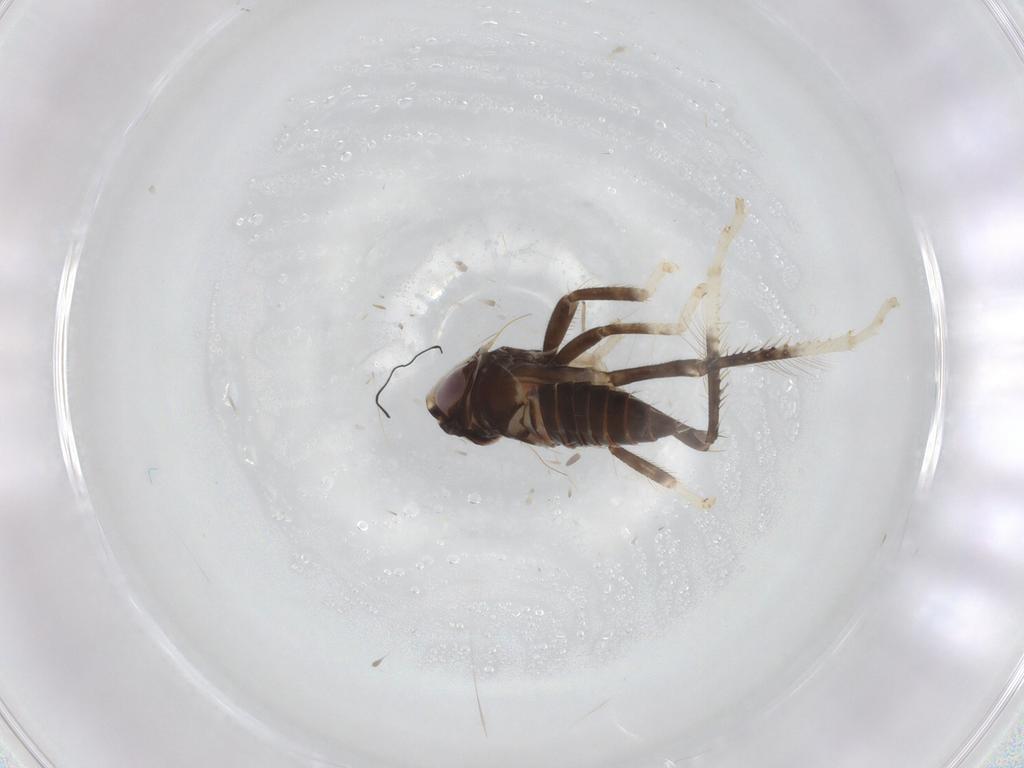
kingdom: Animalia
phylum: Arthropoda
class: Insecta
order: Hemiptera
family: Cicadellidae
